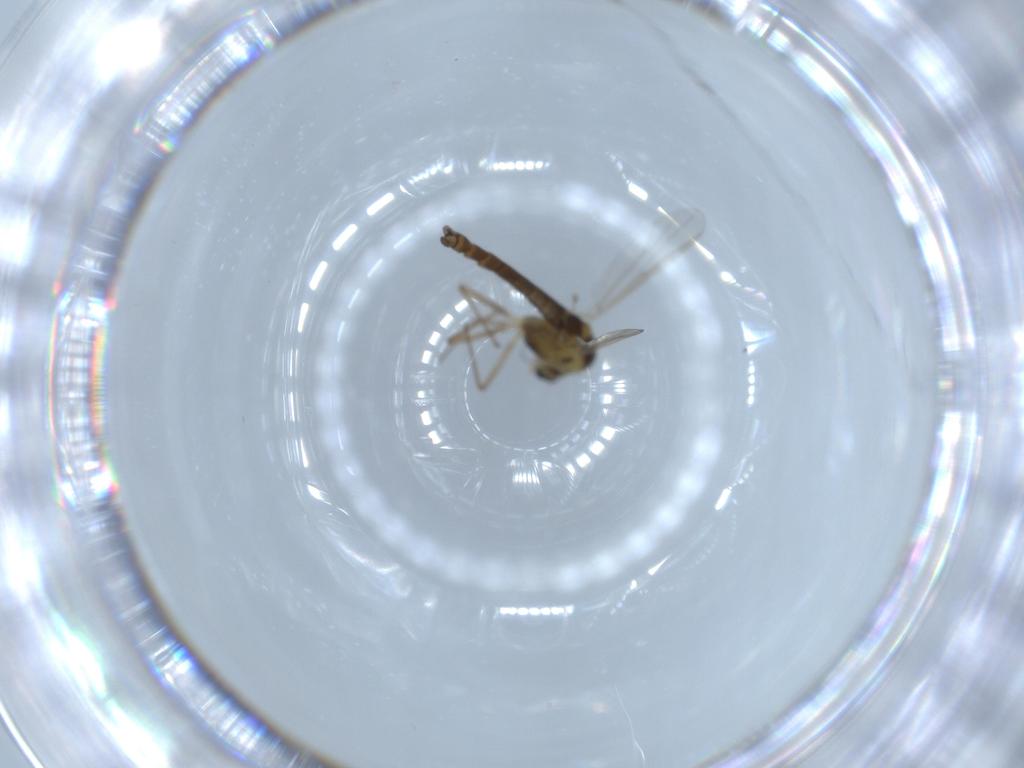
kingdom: Animalia
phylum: Arthropoda
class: Insecta
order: Diptera
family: Chironomidae
